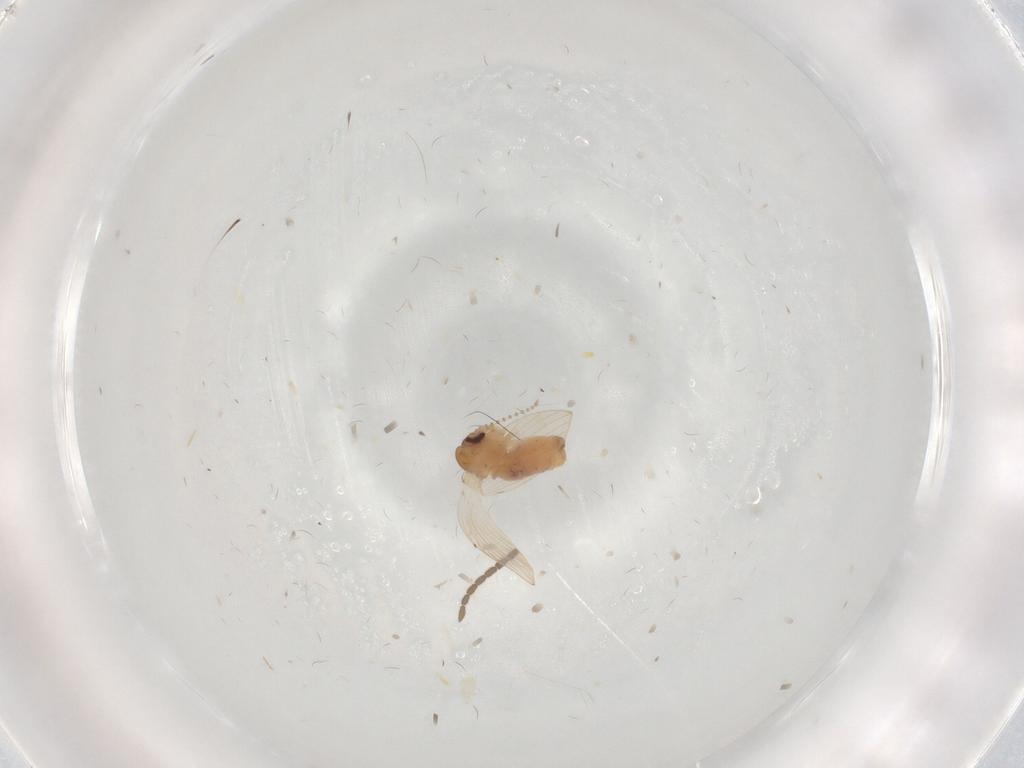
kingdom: Animalia
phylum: Arthropoda
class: Insecta
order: Diptera
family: Psychodidae
